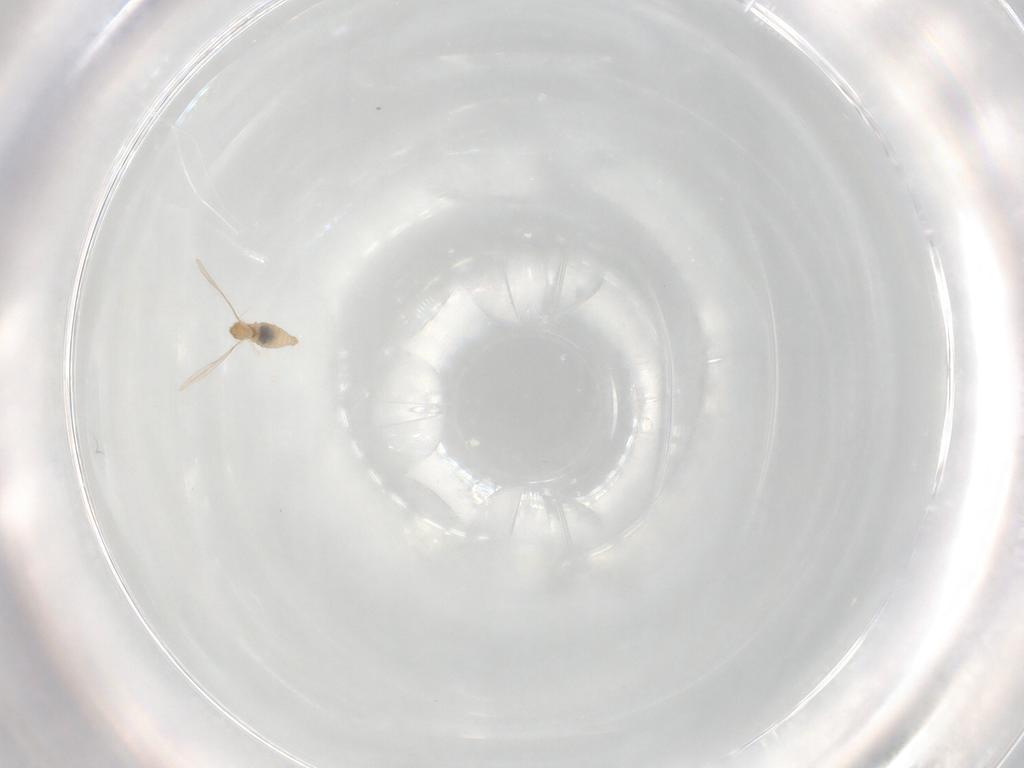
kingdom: Animalia
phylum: Arthropoda
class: Insecta
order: Diptera
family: Cecidomyiidae
